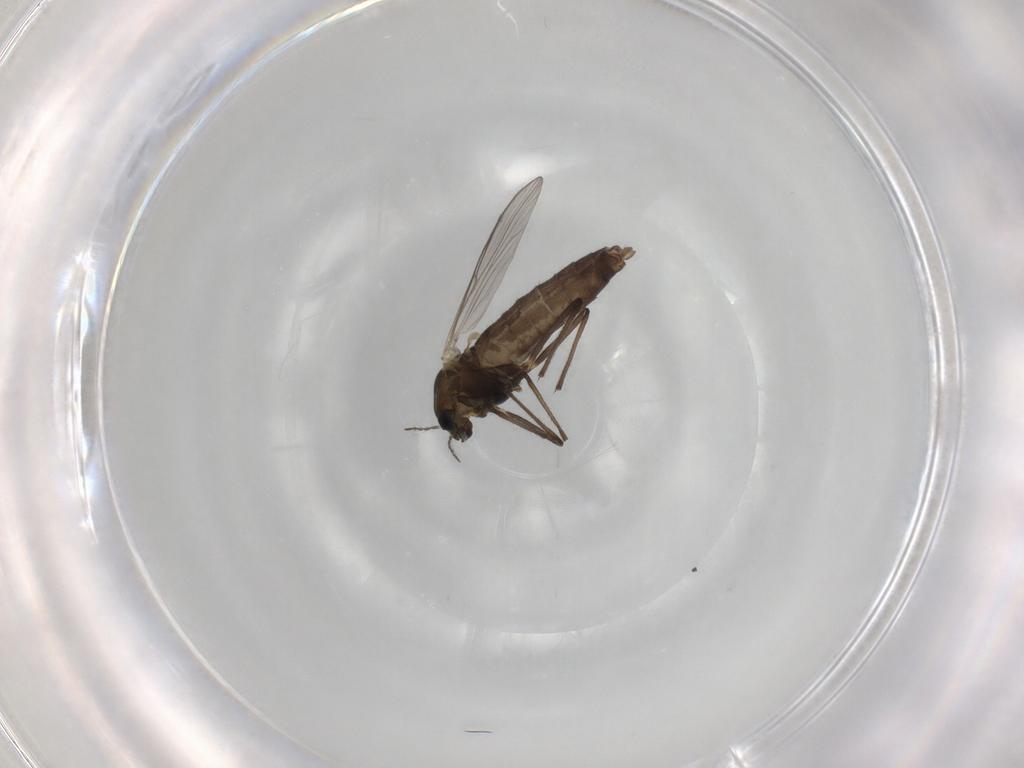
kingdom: Animalia
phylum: Arthropoda
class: Insecta
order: Diptera
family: Chironomidae
